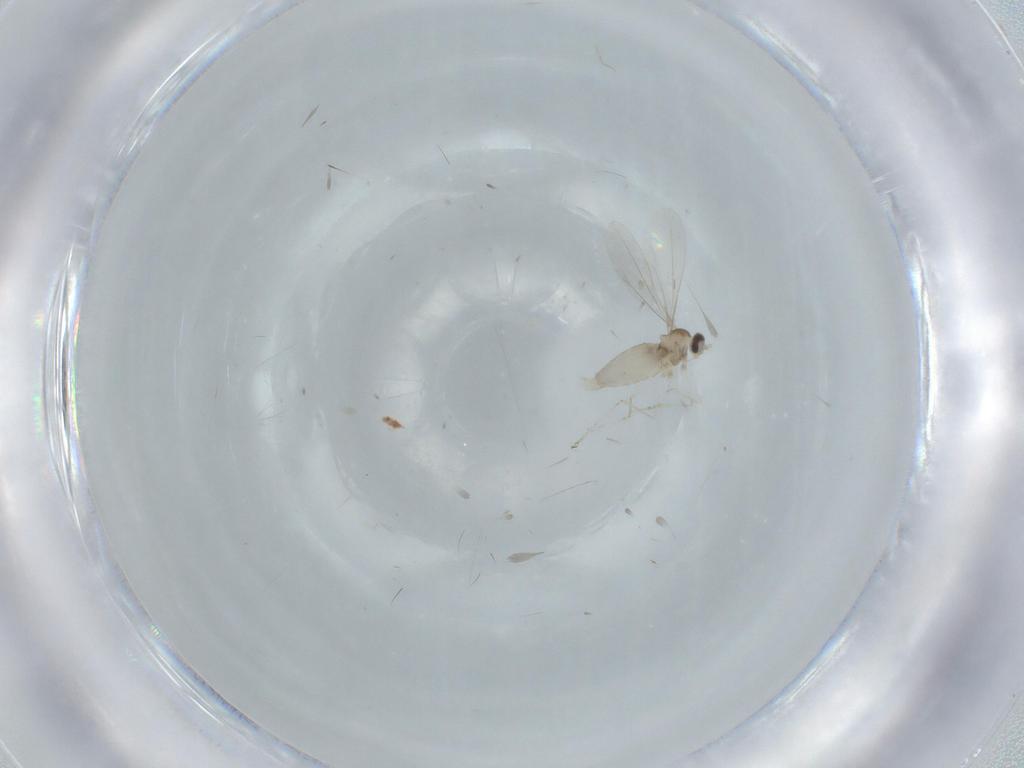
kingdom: Animalia
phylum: Arthropoda
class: Insecta
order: Diptera
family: Cecidomyiidae
